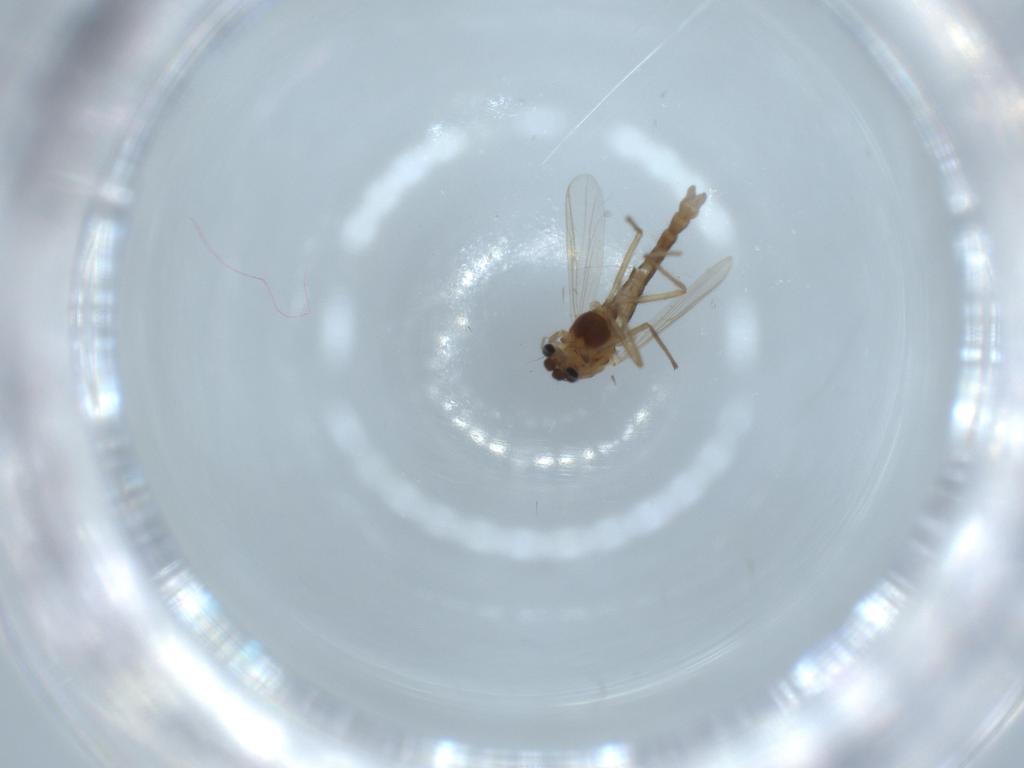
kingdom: Animalia
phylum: Arthropoda
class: Insecta
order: Diptera
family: Chironomidae
